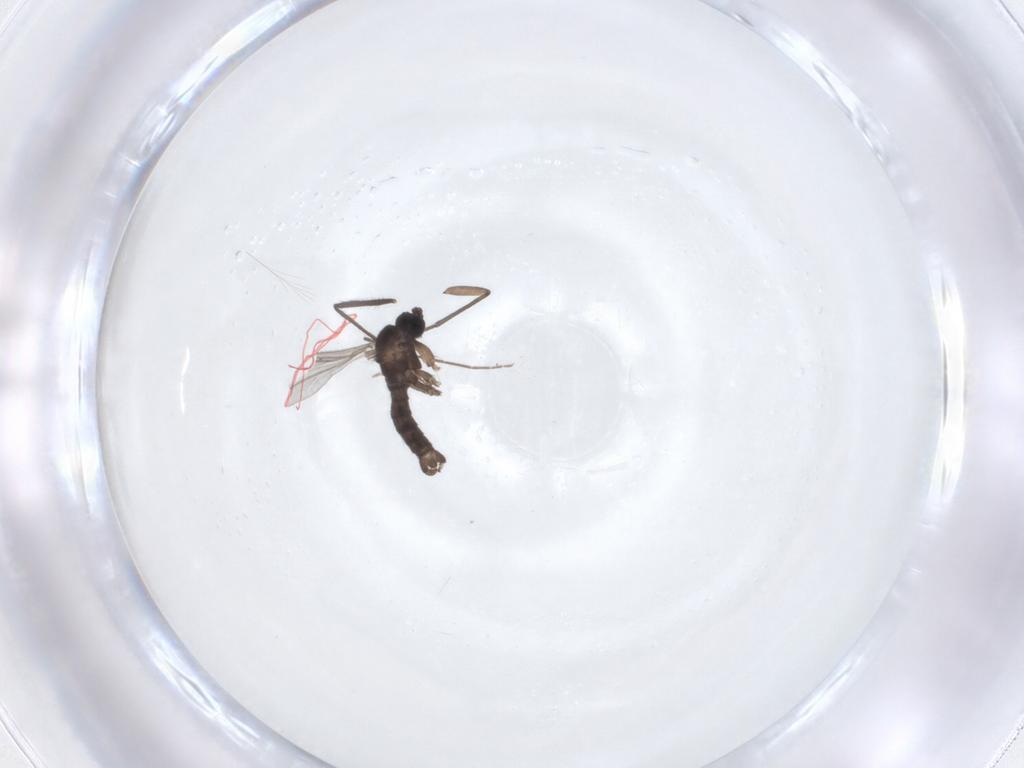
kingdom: Animalia
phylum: Arthropoda
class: Insecta
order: Diptera
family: Sciaridae
